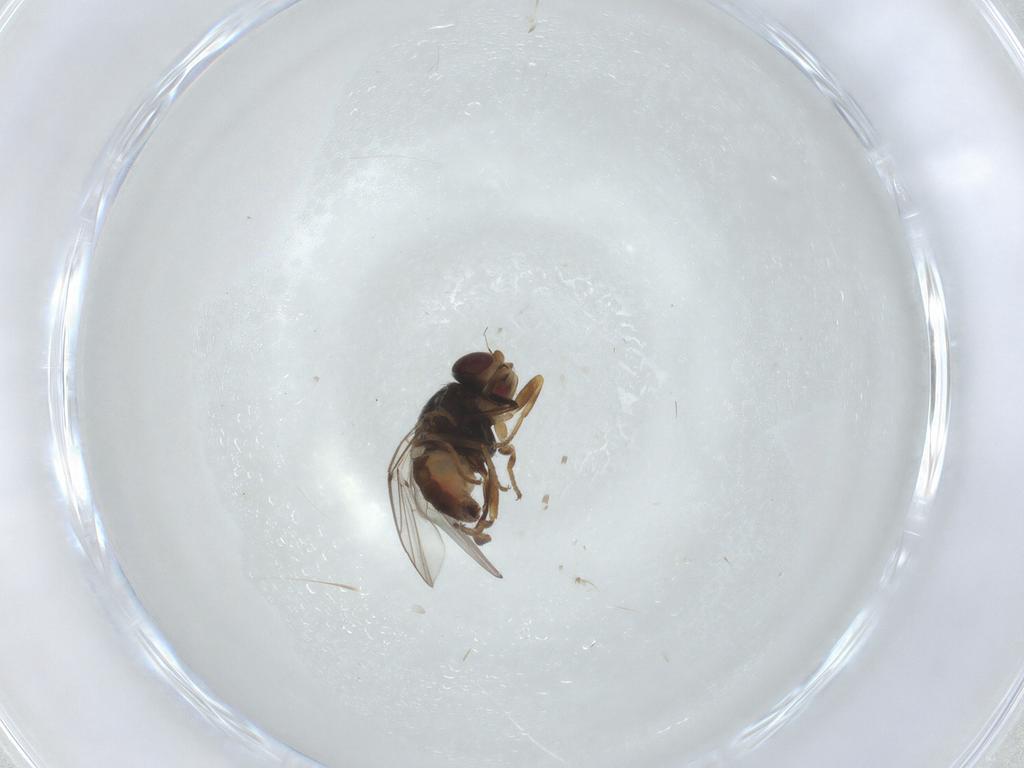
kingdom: Animalia
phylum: Arthropoda
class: Insecta
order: Diptera
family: Chloropidae
